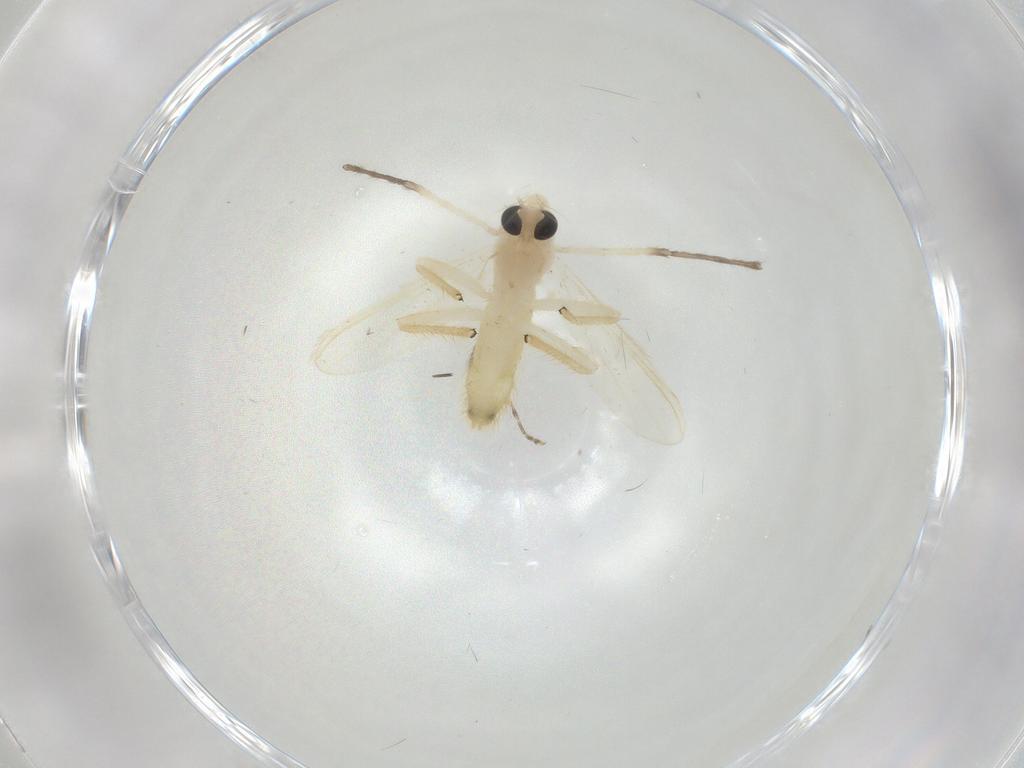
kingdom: Animalia
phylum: Arthropoda
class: Insecta
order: Diptera
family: Chironomidae
